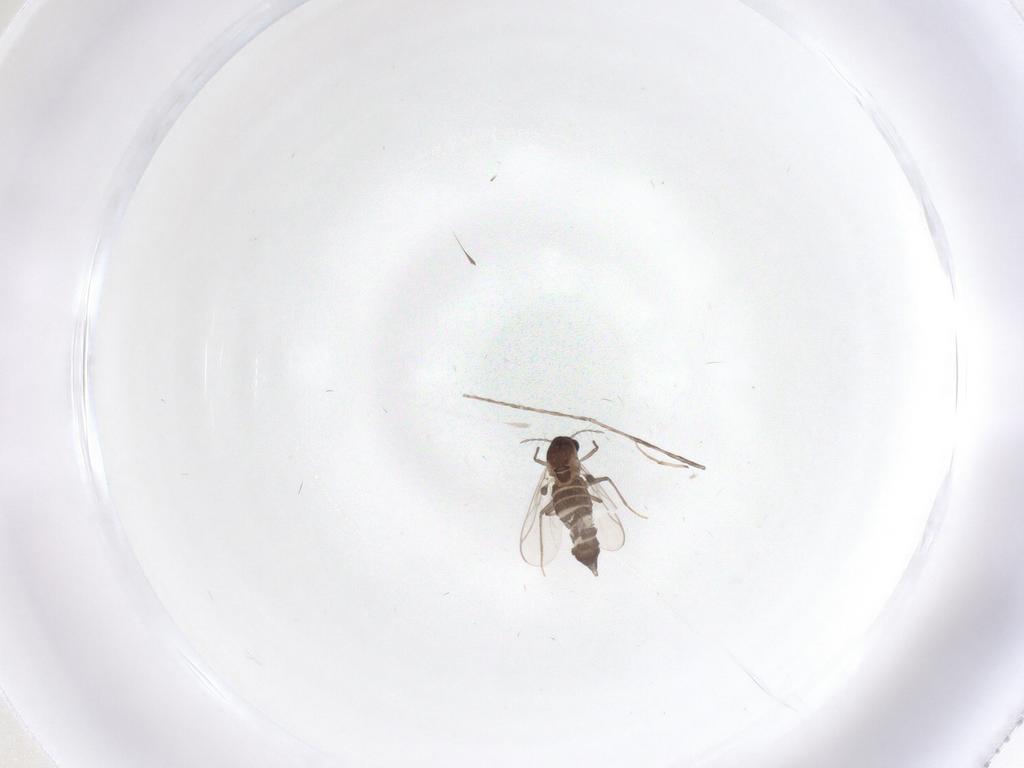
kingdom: Animalia
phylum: Arthropoda
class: Insecta
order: Diptera
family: Chironomidae
